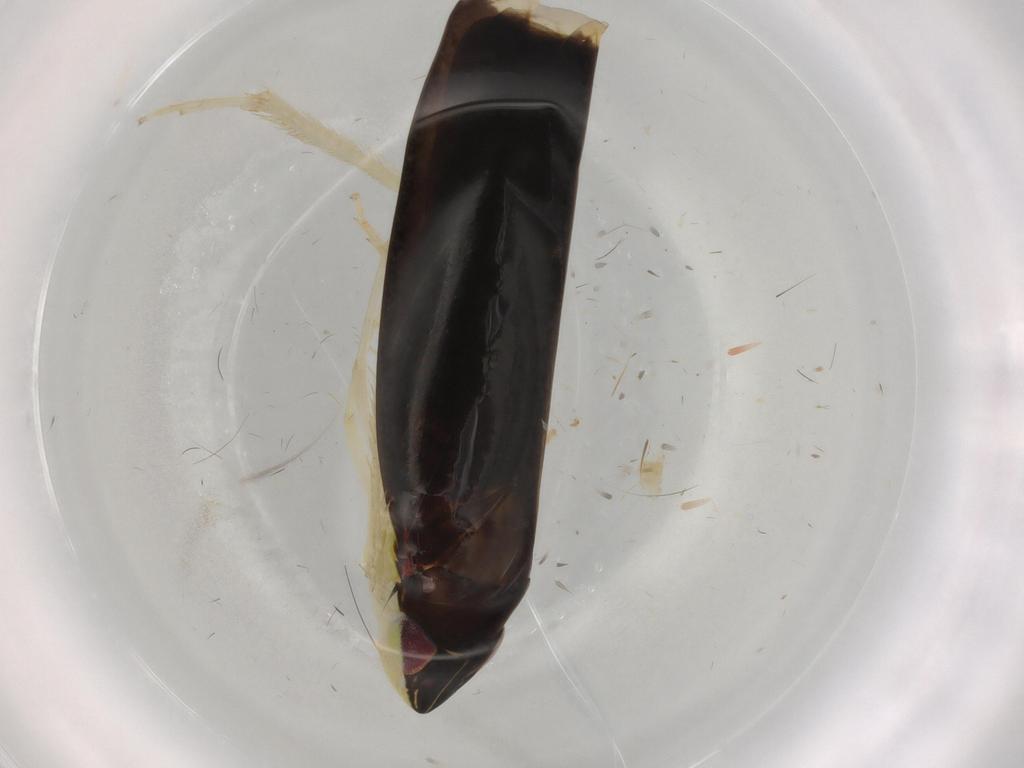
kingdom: Animalia
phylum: Arthropoda
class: Insecta
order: Hemiptera
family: Cicadellidae
